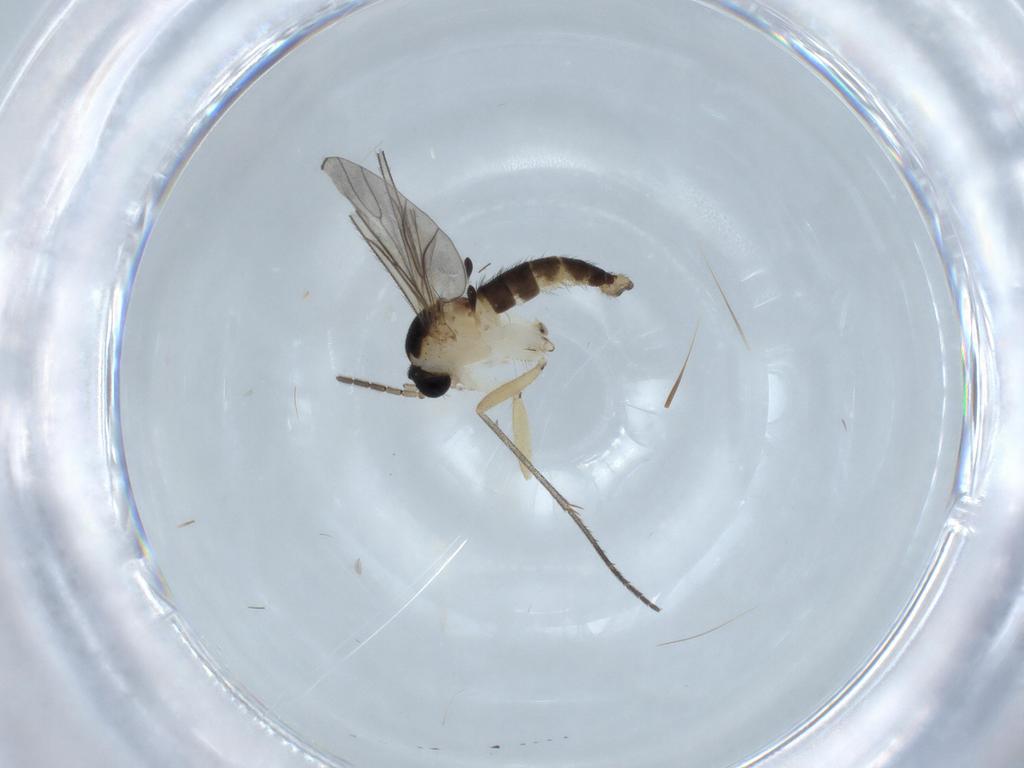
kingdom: Animalia
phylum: Arthropoda
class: Insecta
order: Diptera
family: Sciaridae
